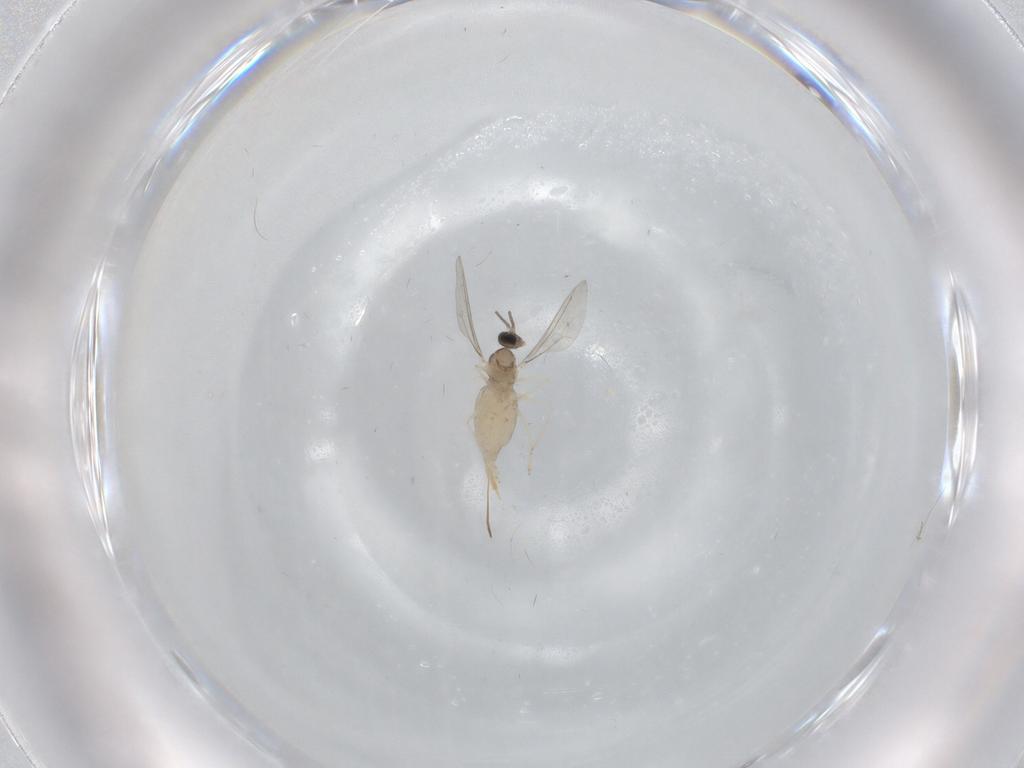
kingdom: Animalia
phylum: Arthropoda
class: Insecta
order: Diptera
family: Cecidomyiidae
